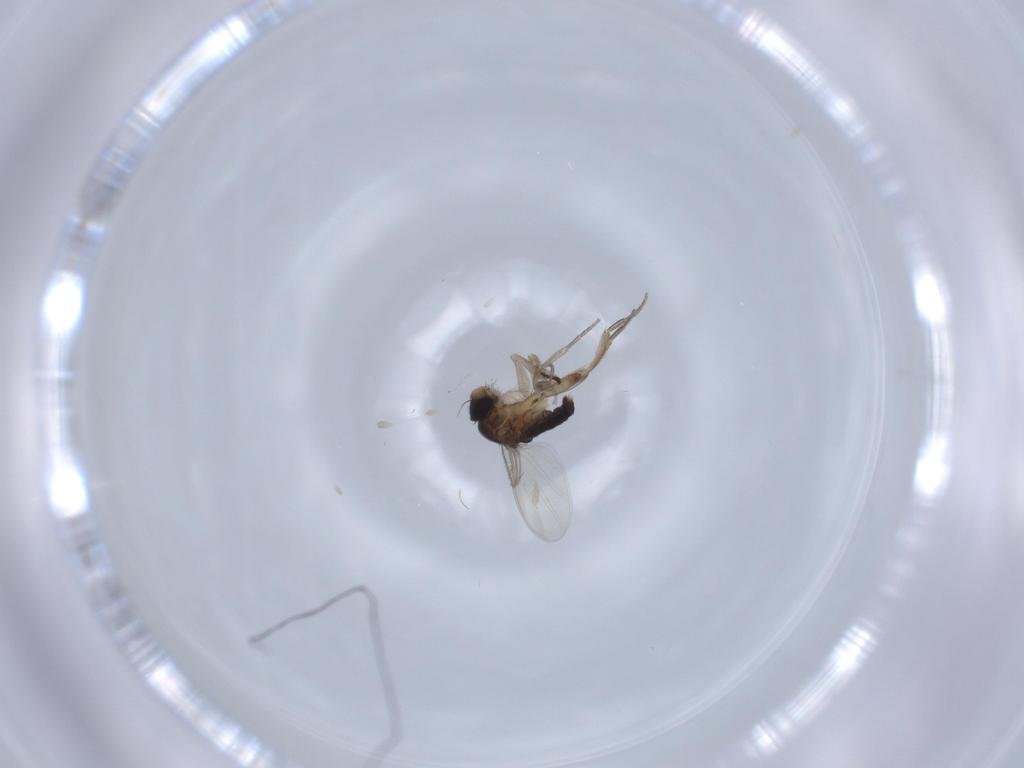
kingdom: Animalia
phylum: Arthropoda
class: Insecta
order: Diptera
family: Phoridae
